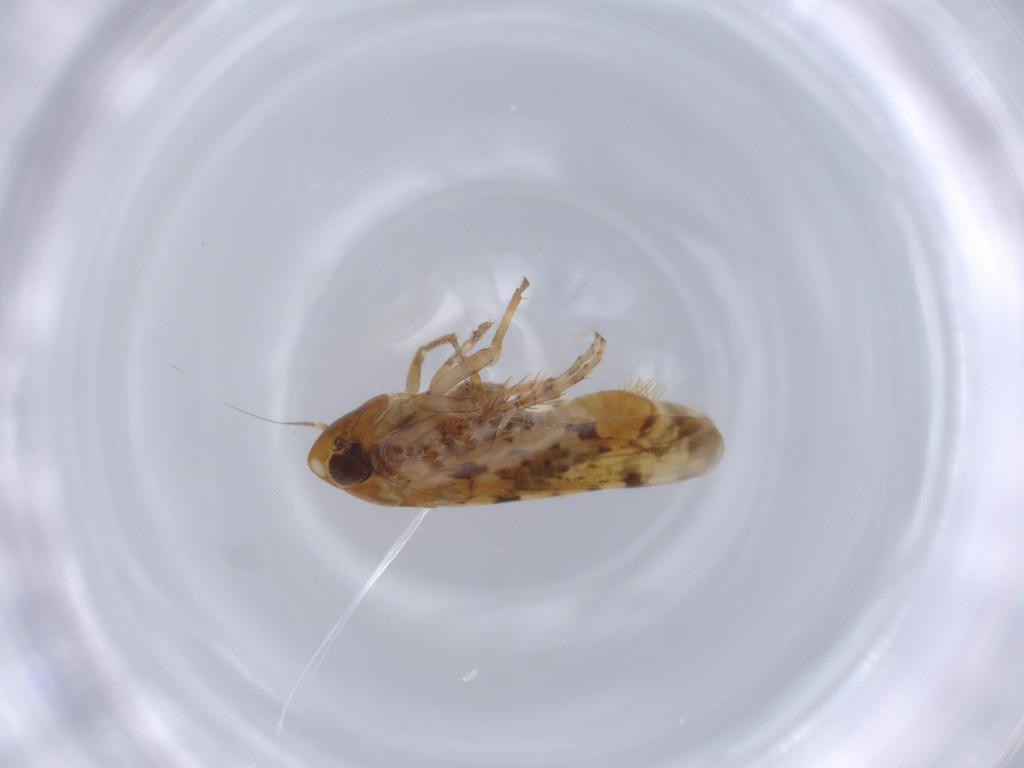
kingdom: Animalia
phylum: Arthropoda
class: Insecta
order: Hemiptera
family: Cicadellidae
